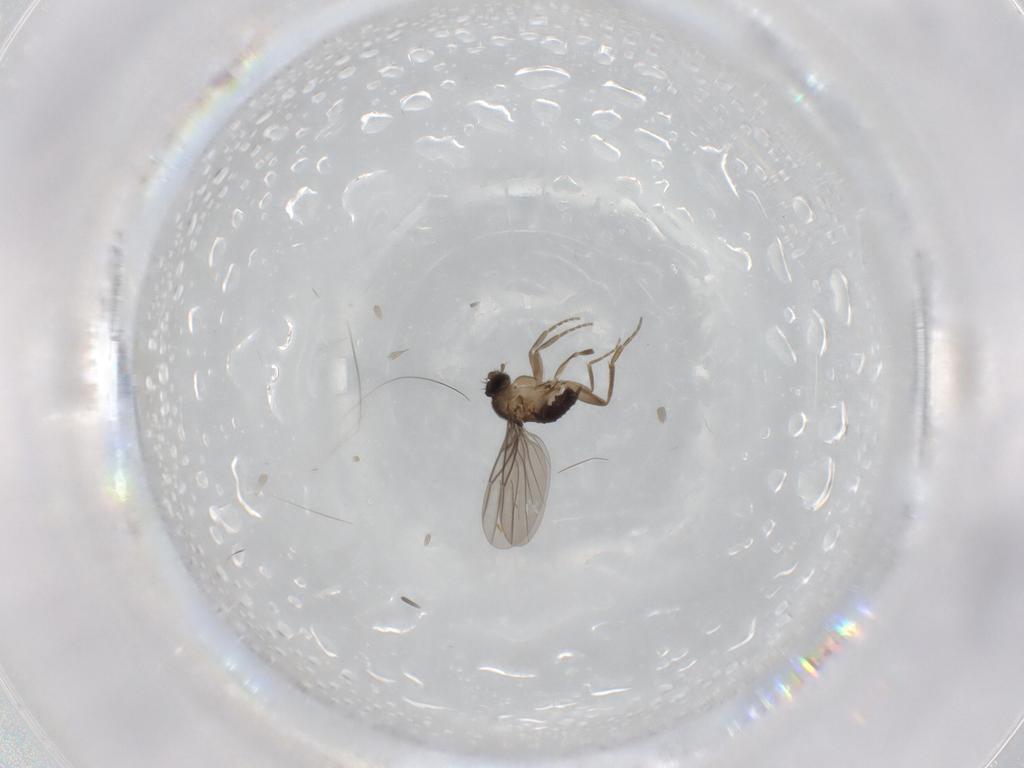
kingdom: Animalia
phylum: Arthropoda
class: Insecta
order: Diptera
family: Phoridae
